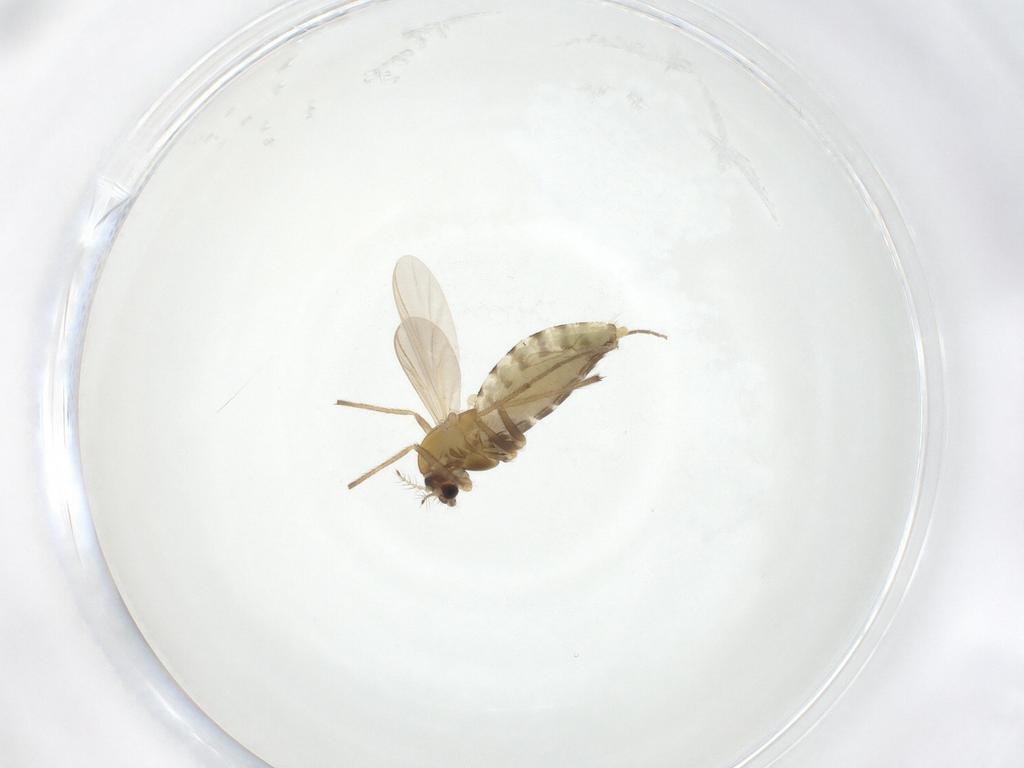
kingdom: Animalia
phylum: Arthropoda
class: Insecta
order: Diptera
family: Chironomidae
